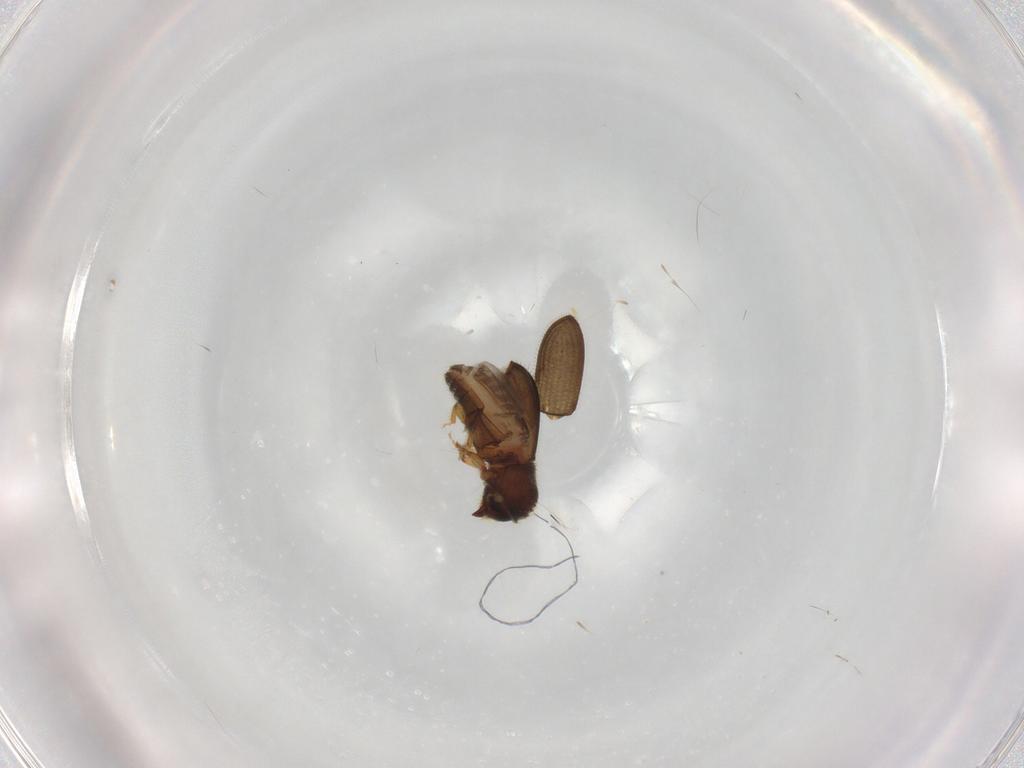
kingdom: Animalia
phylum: Arthropoda
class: Insecta
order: Coleoptera
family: Curculionidae
